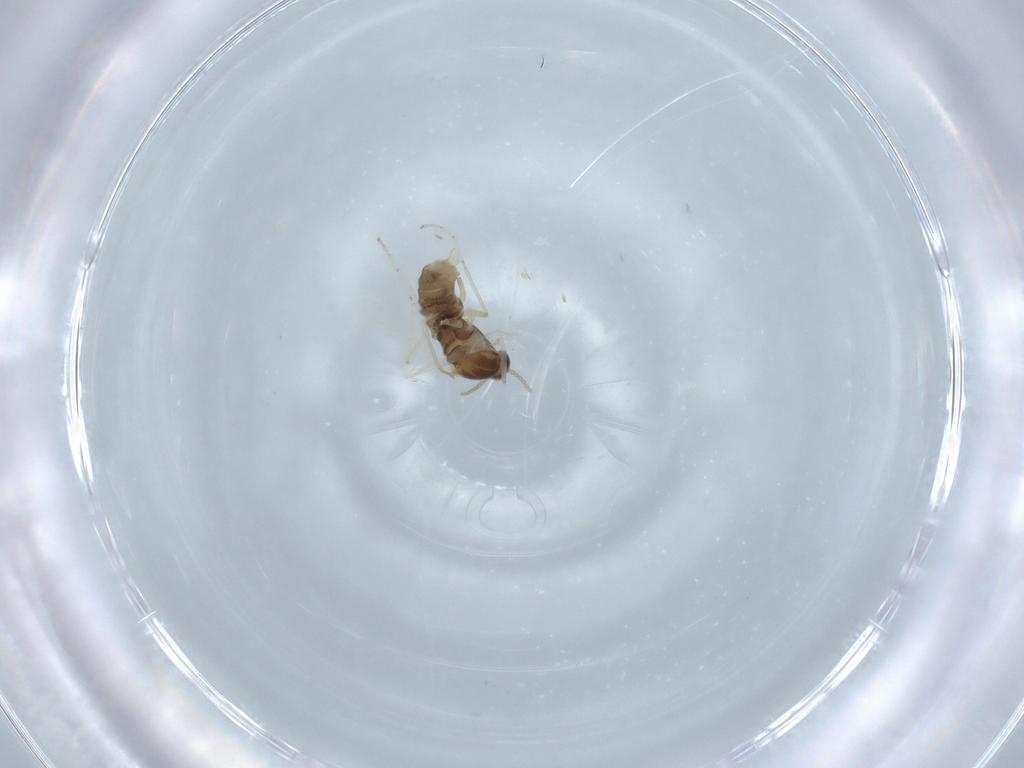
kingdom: Animalia
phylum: Arthropoda
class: Insecta
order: Diptera
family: Cecidomyiidae
